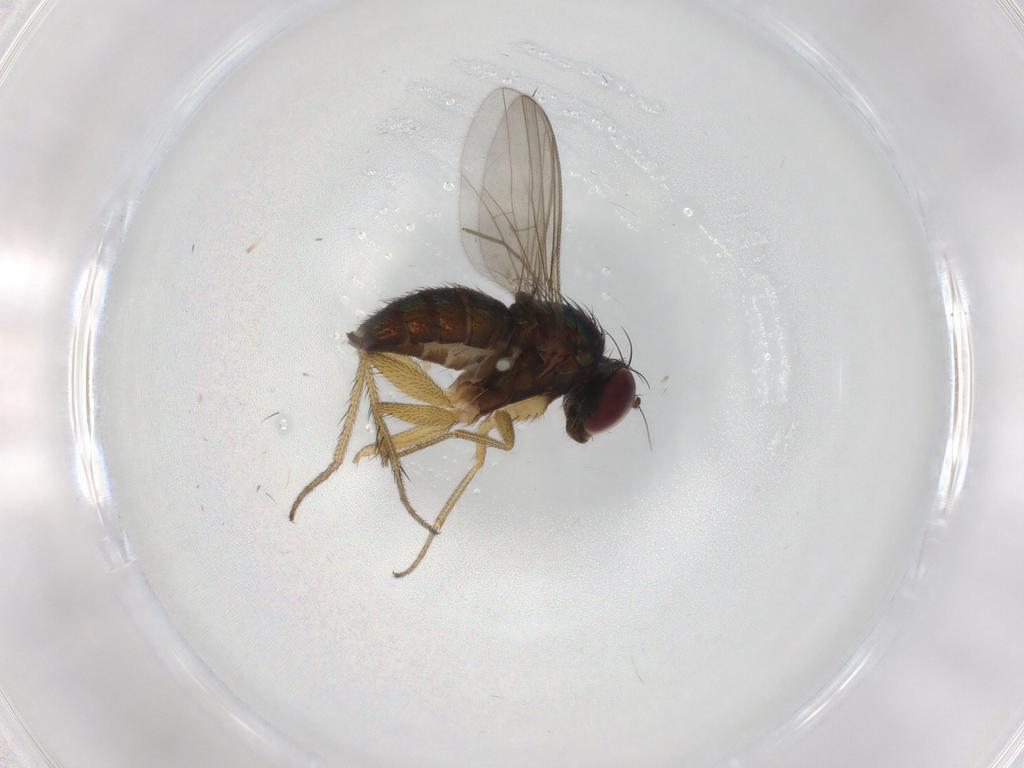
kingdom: Animalia
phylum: Arthropoda
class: Insecta
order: Diptera
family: Chironomidae
